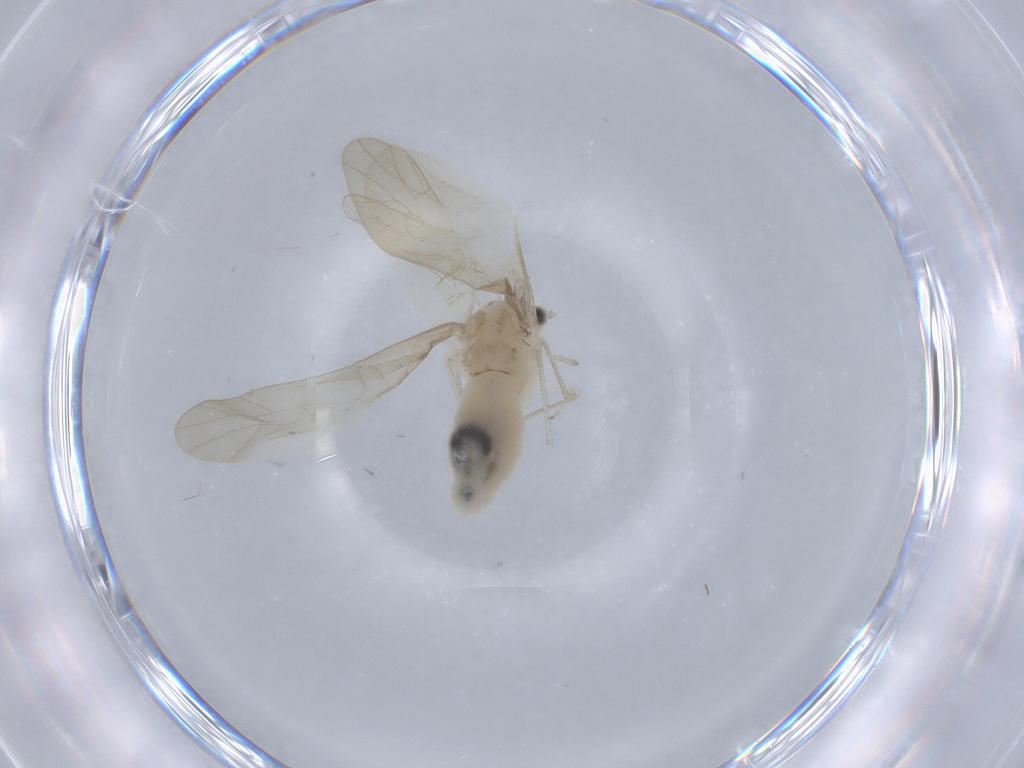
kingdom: Animalia
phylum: Arthropoda
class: Insecta
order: Psocodea
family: Caeciliusidae
